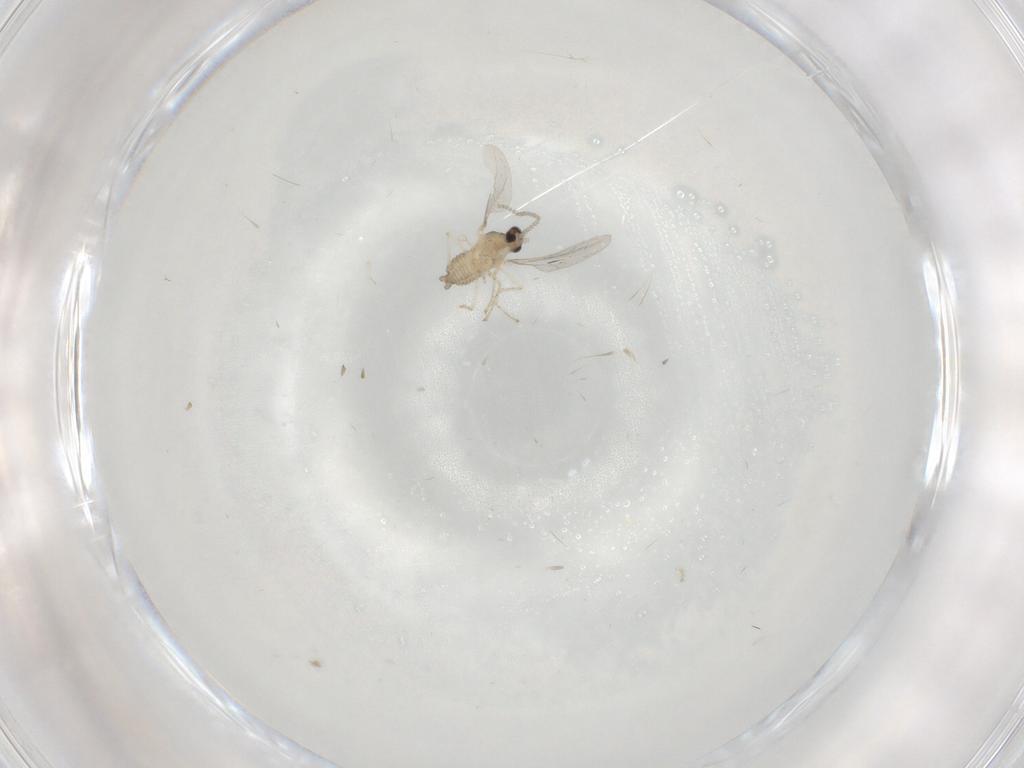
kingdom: Animalia
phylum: Arthropoda
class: Insecta
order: Diptera
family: Cecidomyiidae
